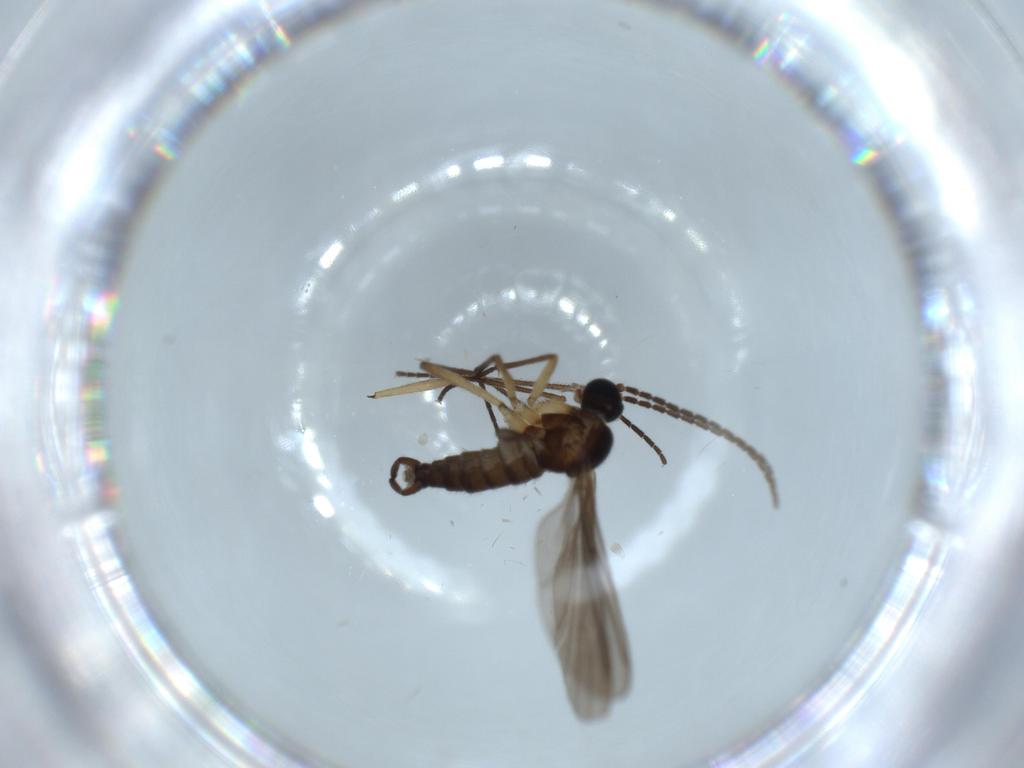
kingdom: Animalia
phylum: Arthropoda
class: Insecta
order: Diptera
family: Sciaridae
